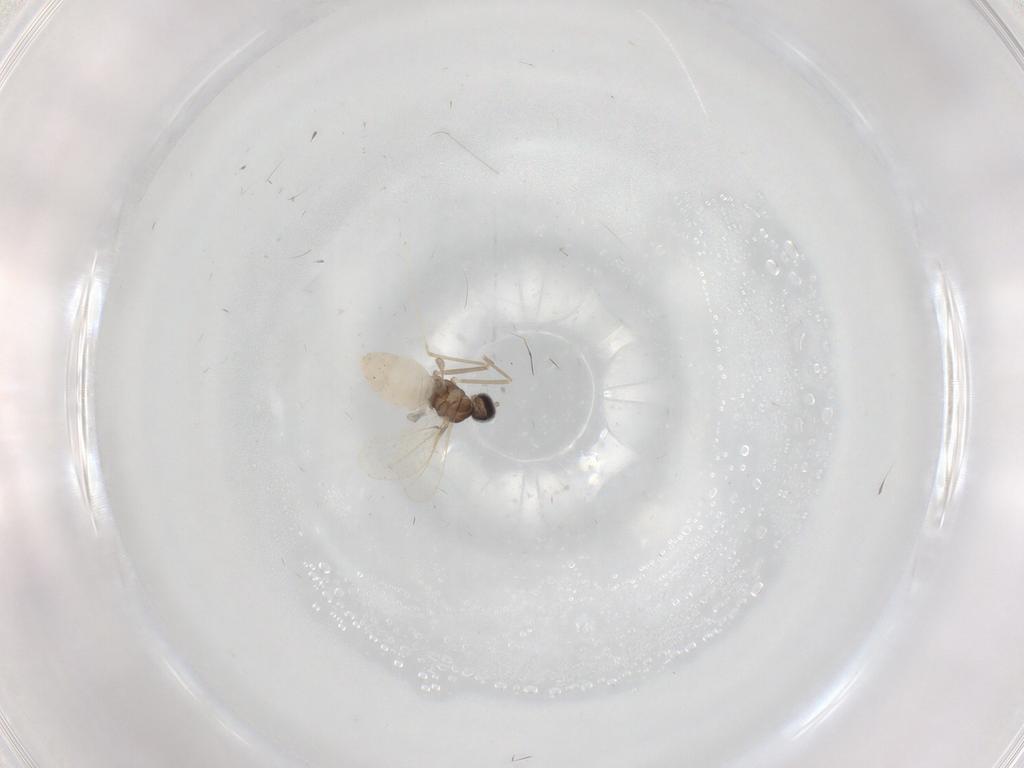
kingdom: Animalia
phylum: Arthropoda
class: Insecta
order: Diptera
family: Cecidomyiidae
